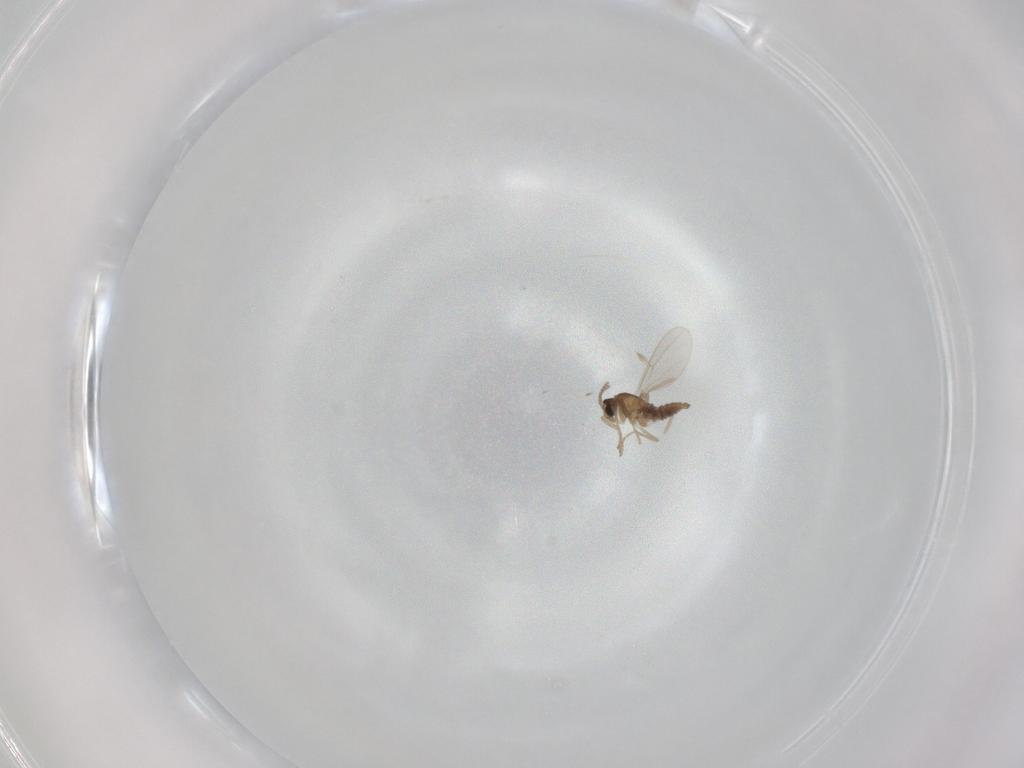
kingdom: Animalia
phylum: Arthropoda
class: Insecta
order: Diptera
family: Cecidomyiidae
